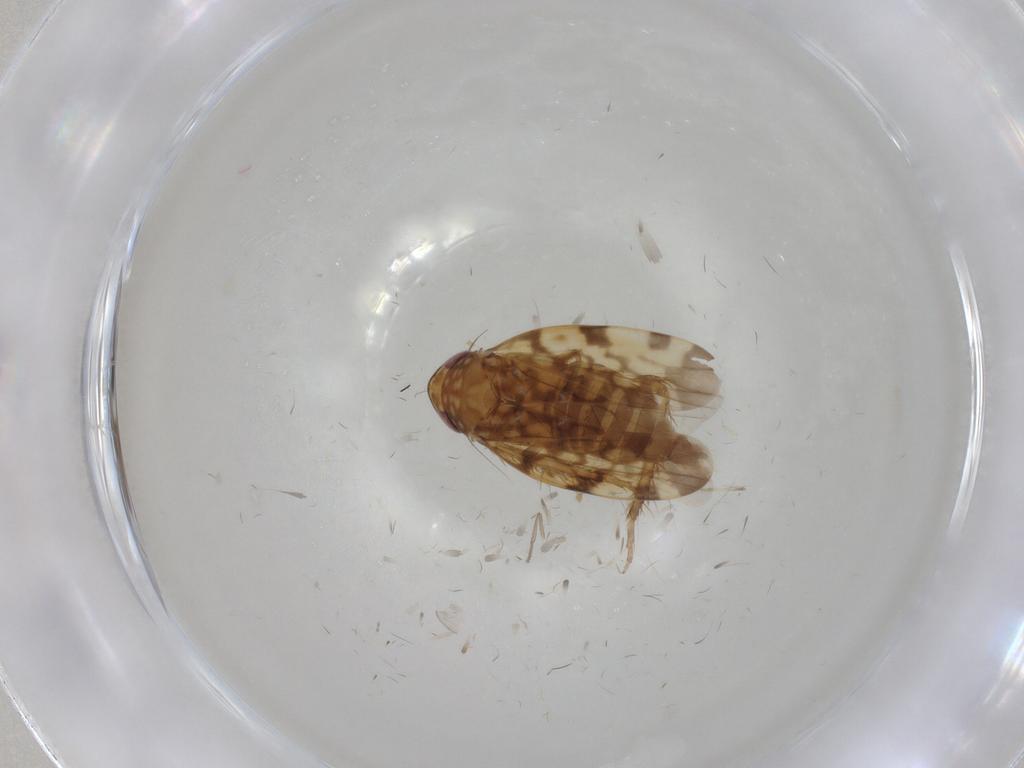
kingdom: Animalia
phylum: Arthropoda
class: Insecta
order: Hemiptera
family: Cicadellidae
